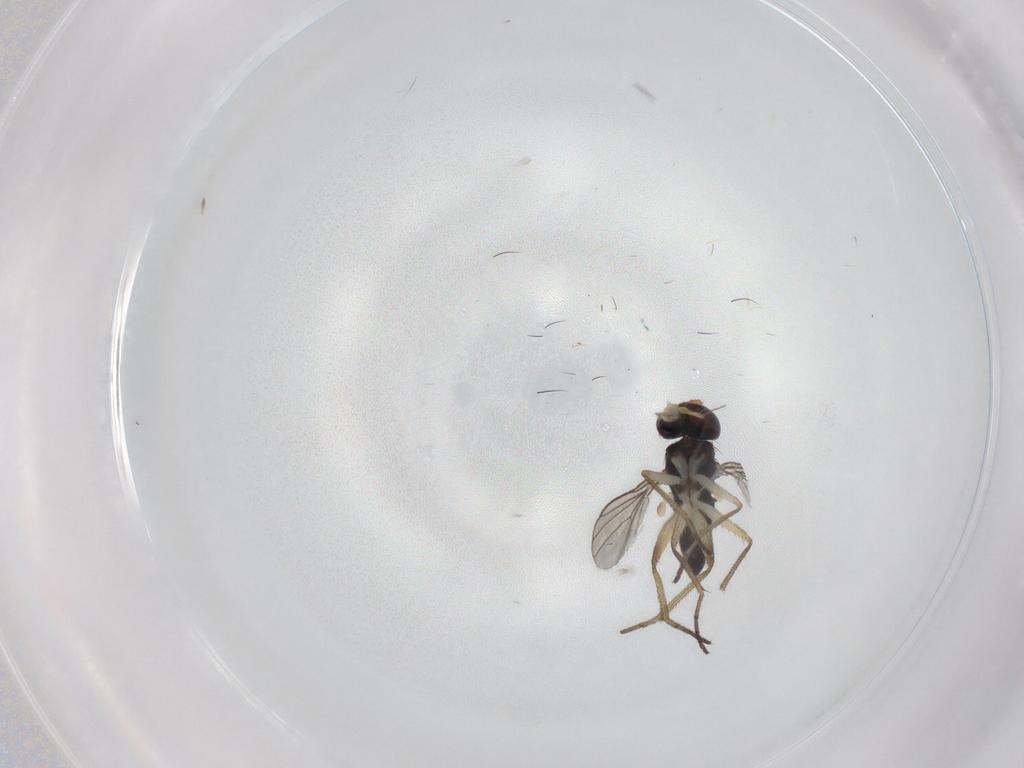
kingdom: Animalia
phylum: Arthropoda
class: Insecta
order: Diptera
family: Dolichopodidae
